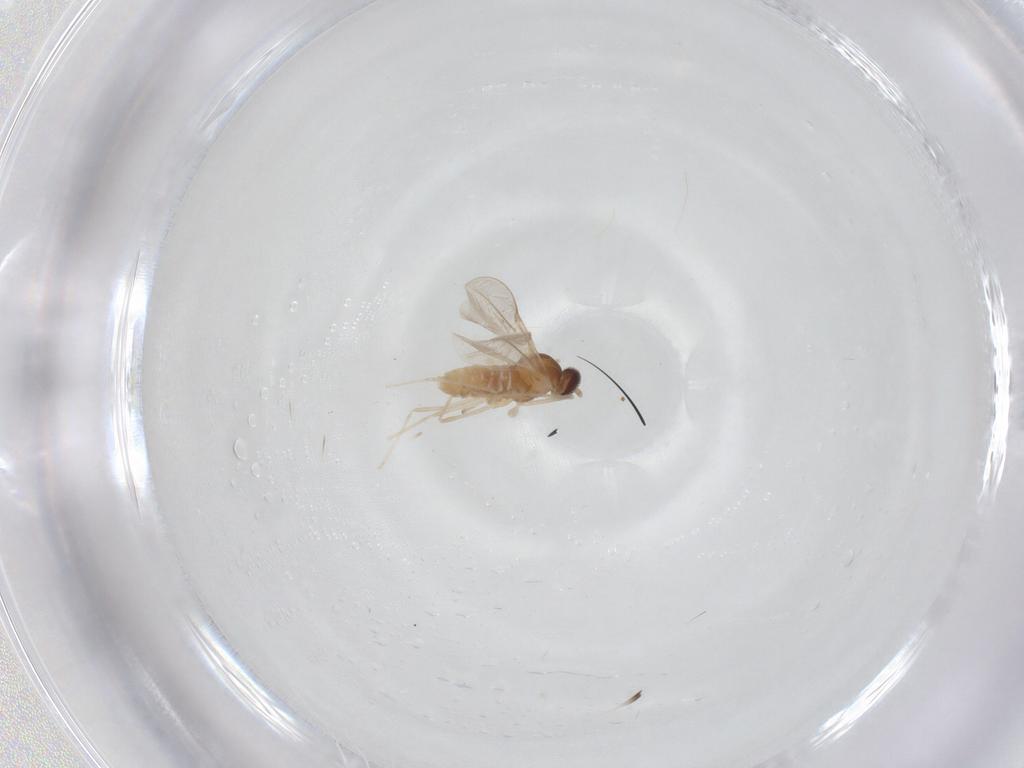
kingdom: Animalia
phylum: Arthropoda
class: Insecta
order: Diptera
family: Cecidomyiidae
